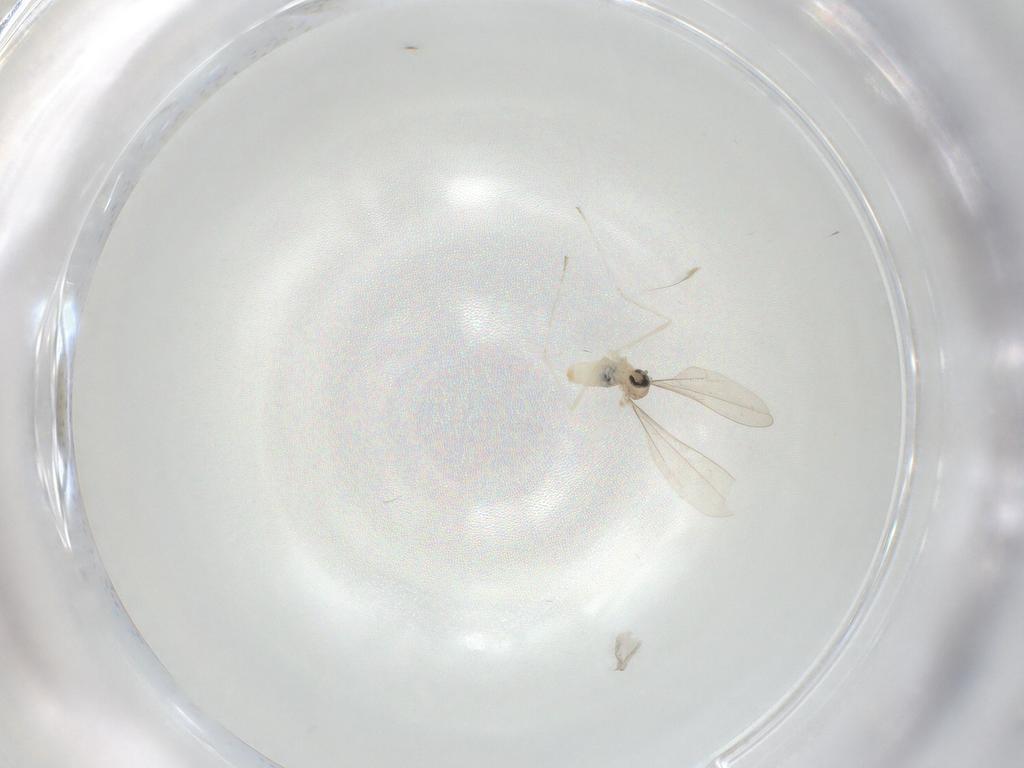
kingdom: Animalia
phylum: Arthropoda
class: Insecta
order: Diptera
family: Cecidomyiidae
